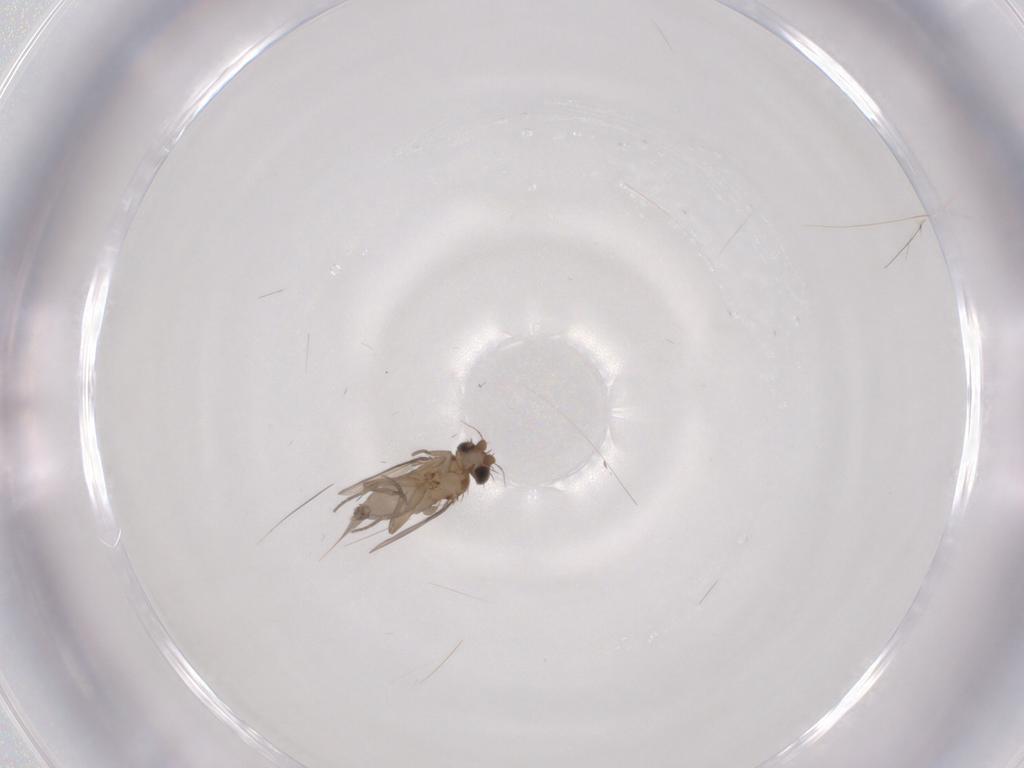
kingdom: Animalia
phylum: Arthropoda
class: Insecta
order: Diptera
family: Phoridae
